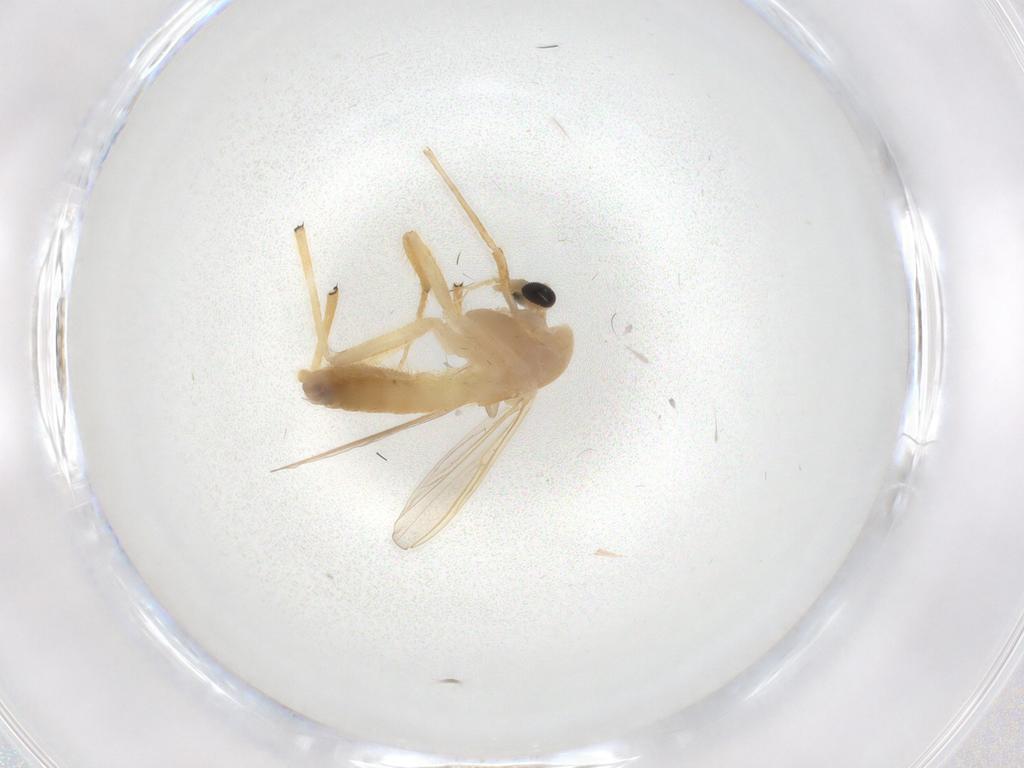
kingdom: Animalia
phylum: Arthropoda
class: Insecta
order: Diptera
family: Chironomidae
